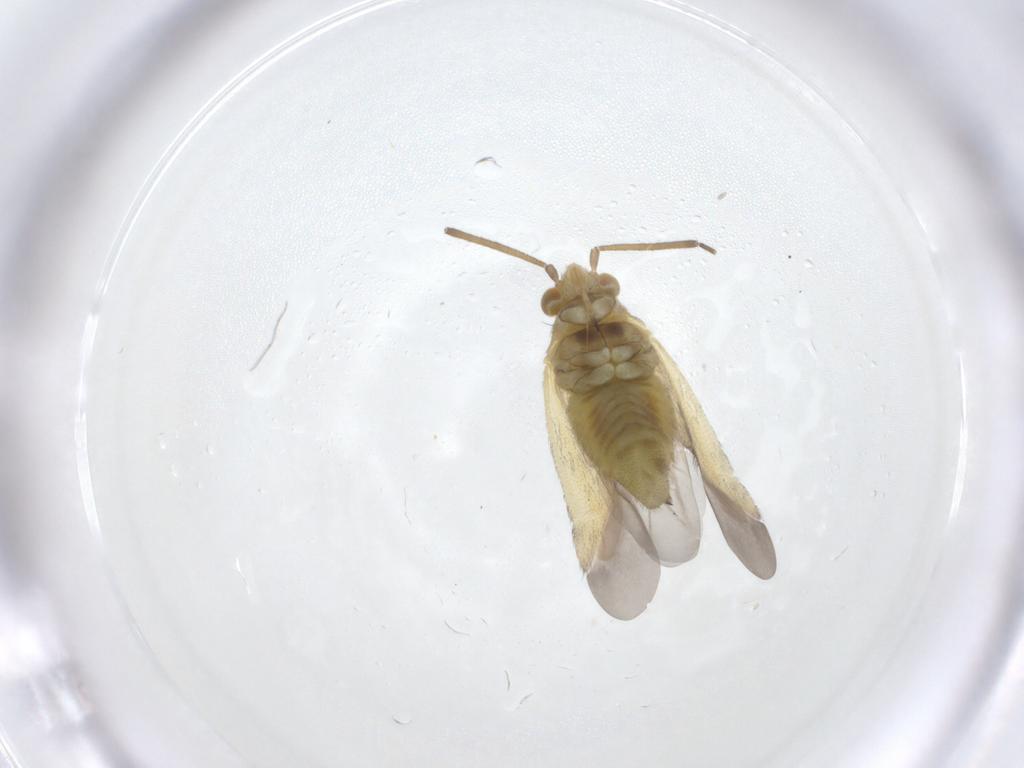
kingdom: Animalia
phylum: Arthropoda
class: Insecta
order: Hemiptera
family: Miridae
